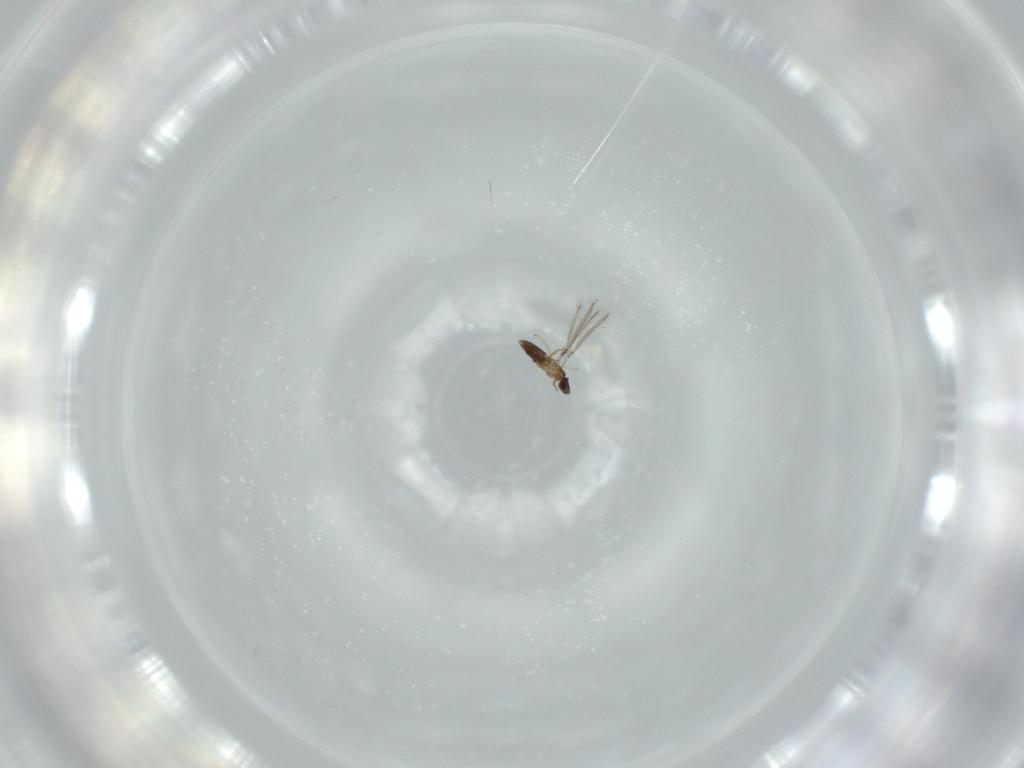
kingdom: Animalia
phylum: Arthropoda
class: Insecta
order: Hymenoptera
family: Mymaridae
